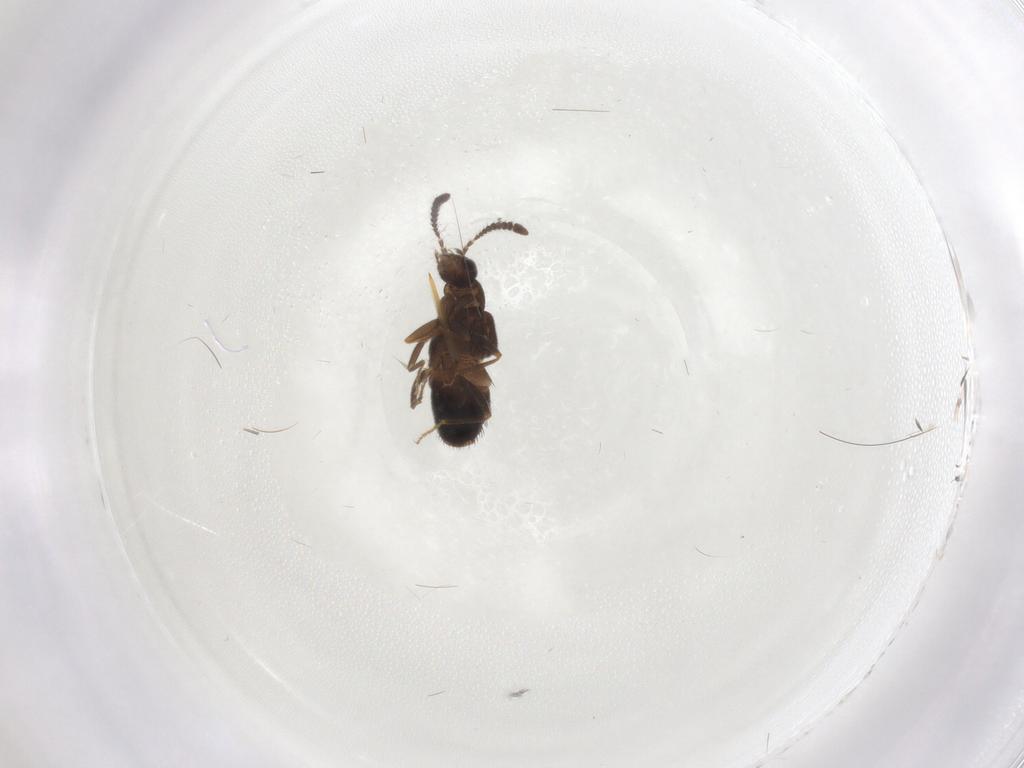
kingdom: Animalia
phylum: Arthropoda
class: Insecta
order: Coleoptera
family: Staphylinidae
